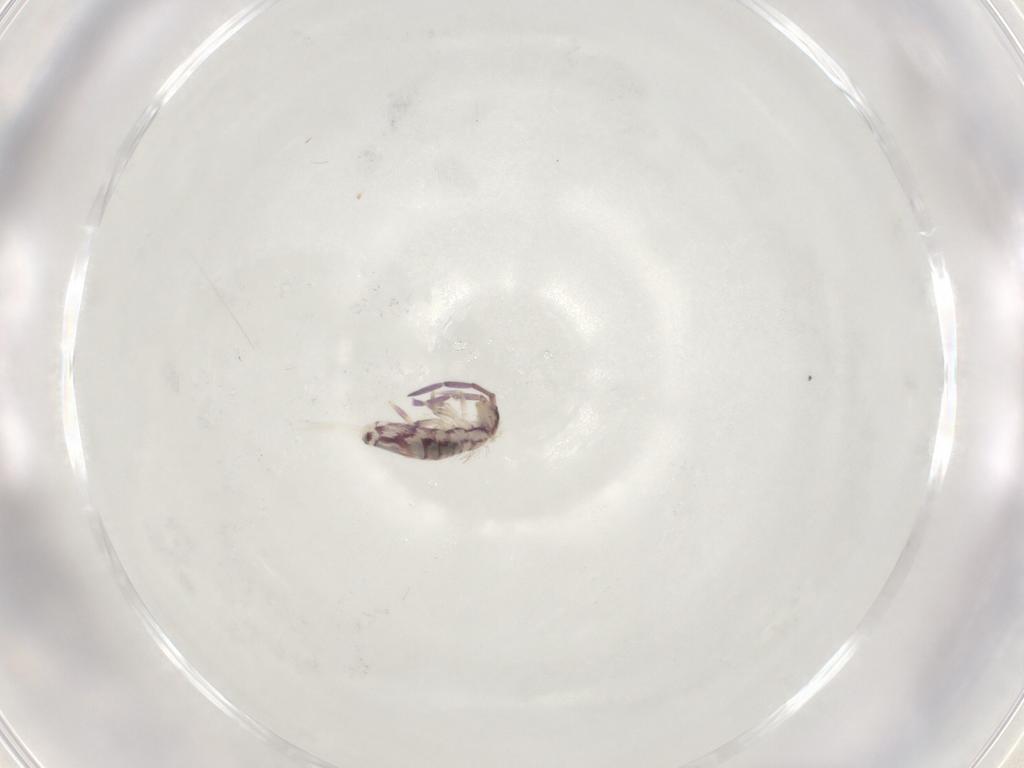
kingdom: Animalia
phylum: Arthropoda
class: Collembola
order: Entomobryomorpha
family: Entomobryidae
